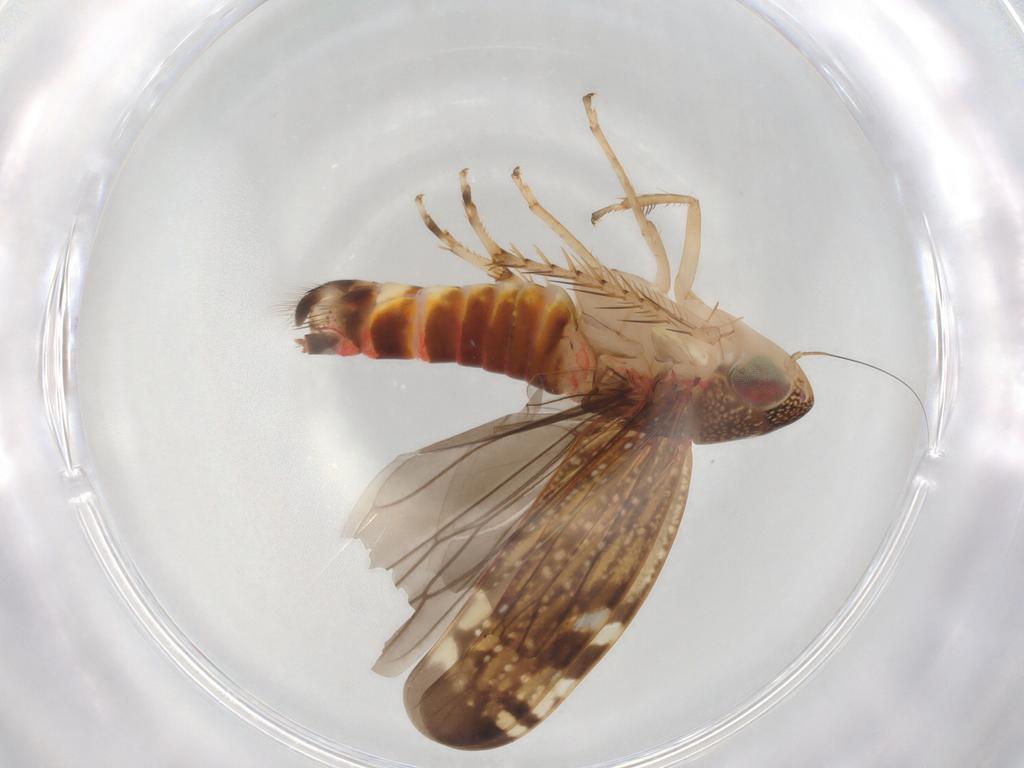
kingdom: Animalia
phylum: Arthropoda
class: Insecta
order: Hemiptera
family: Cicadellidae
